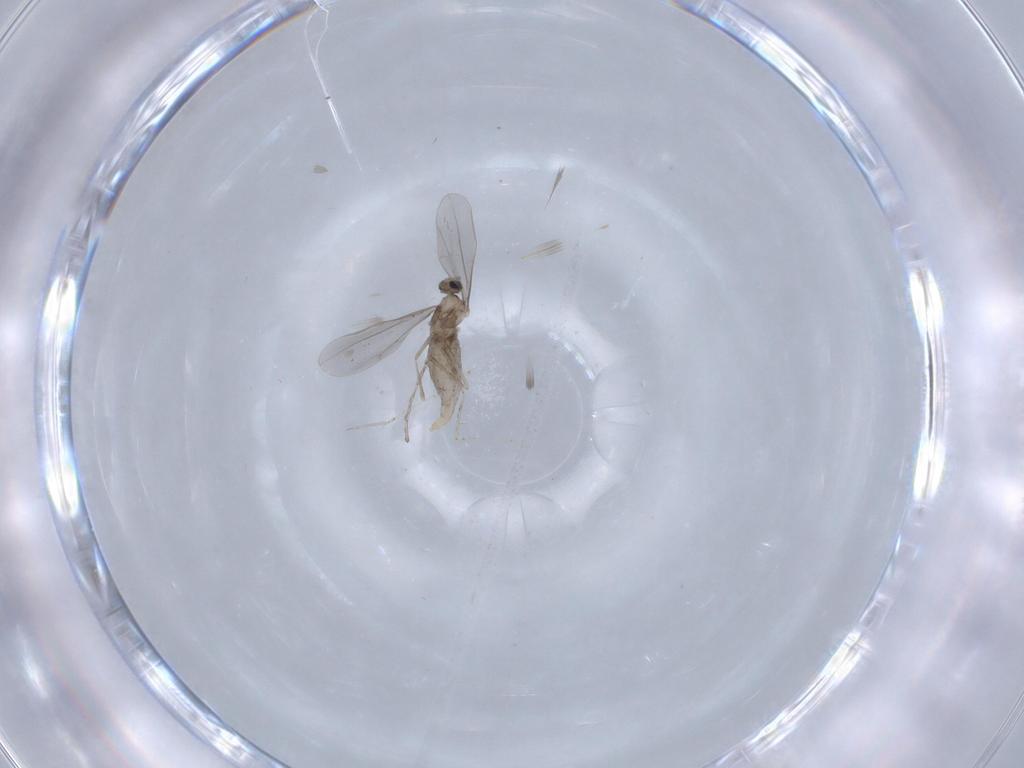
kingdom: Animalia
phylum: Arthropoda
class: Insecta
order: Diptera
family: Cecidomyiidae
